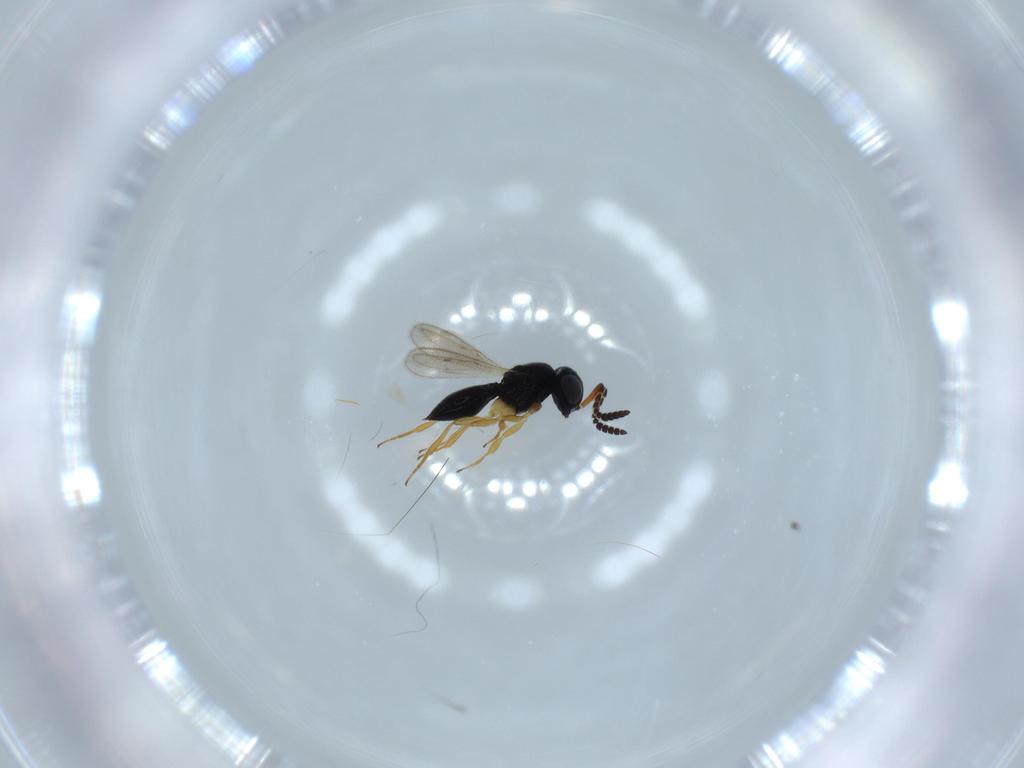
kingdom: Animalia
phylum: Arthropoda
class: Insecta
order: Hymenoptera
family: Scelionidae
